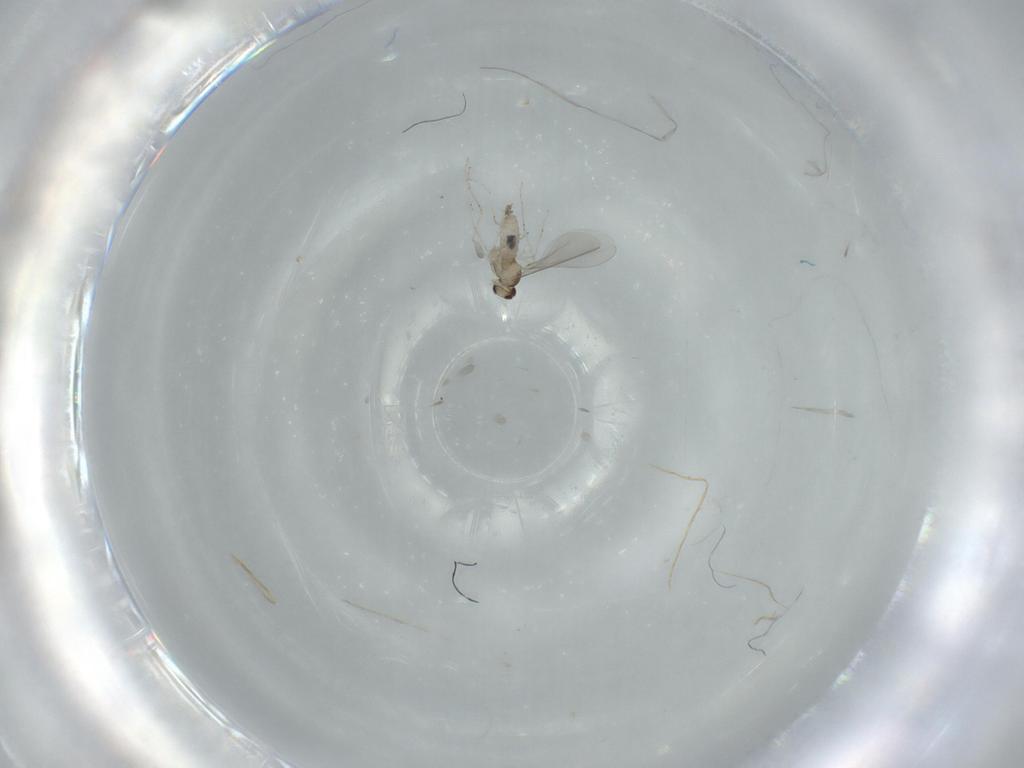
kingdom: Animalia
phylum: Arthropoda
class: Insecta
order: Diptera
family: Cecidomyiidae
